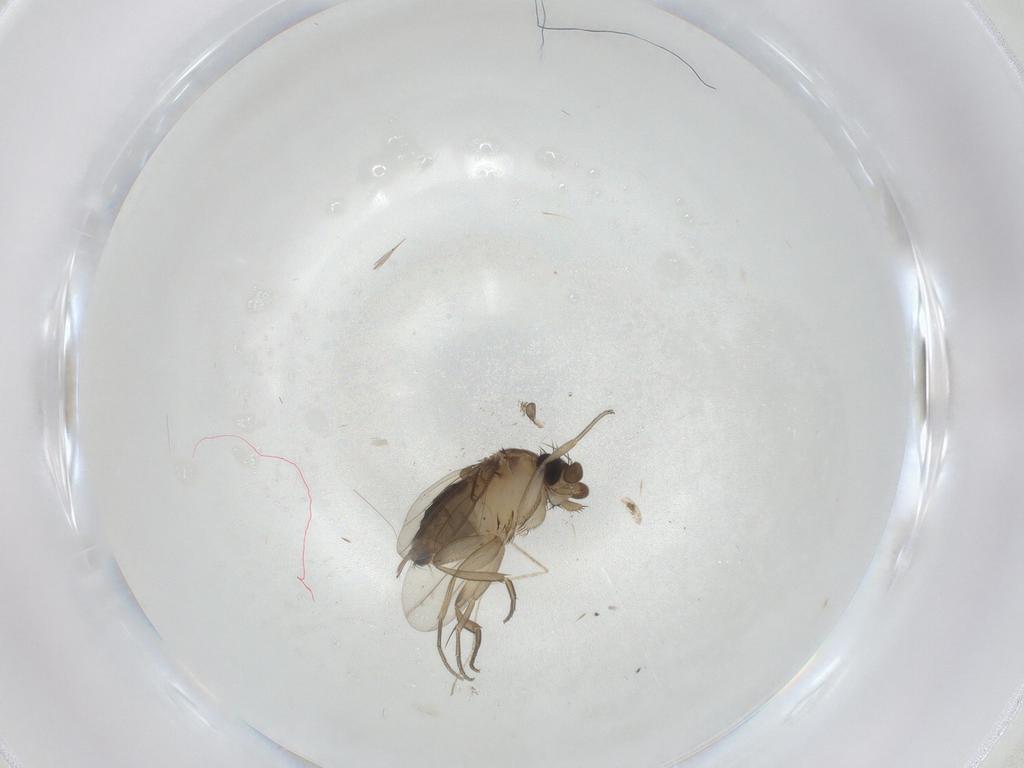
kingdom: Animalia
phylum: Arthropoda
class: Insecta
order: Diptera
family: Phoridae
